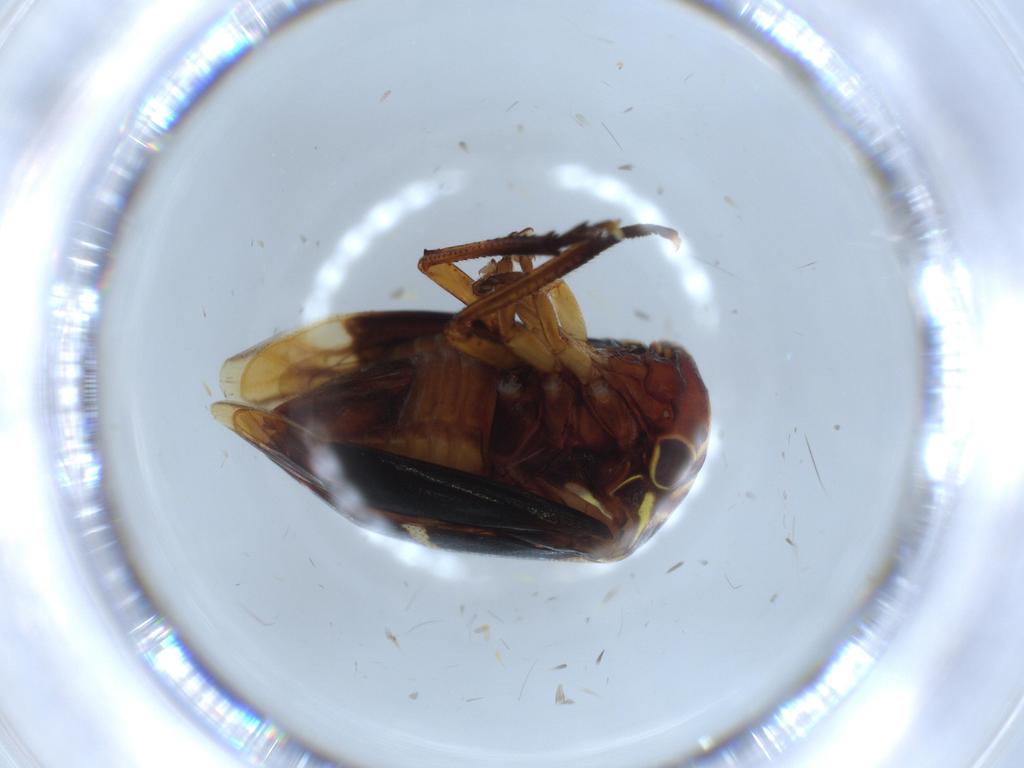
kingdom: Animalia
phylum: Arthropoda
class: Insecta
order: Hemiptera
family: Membracidae
